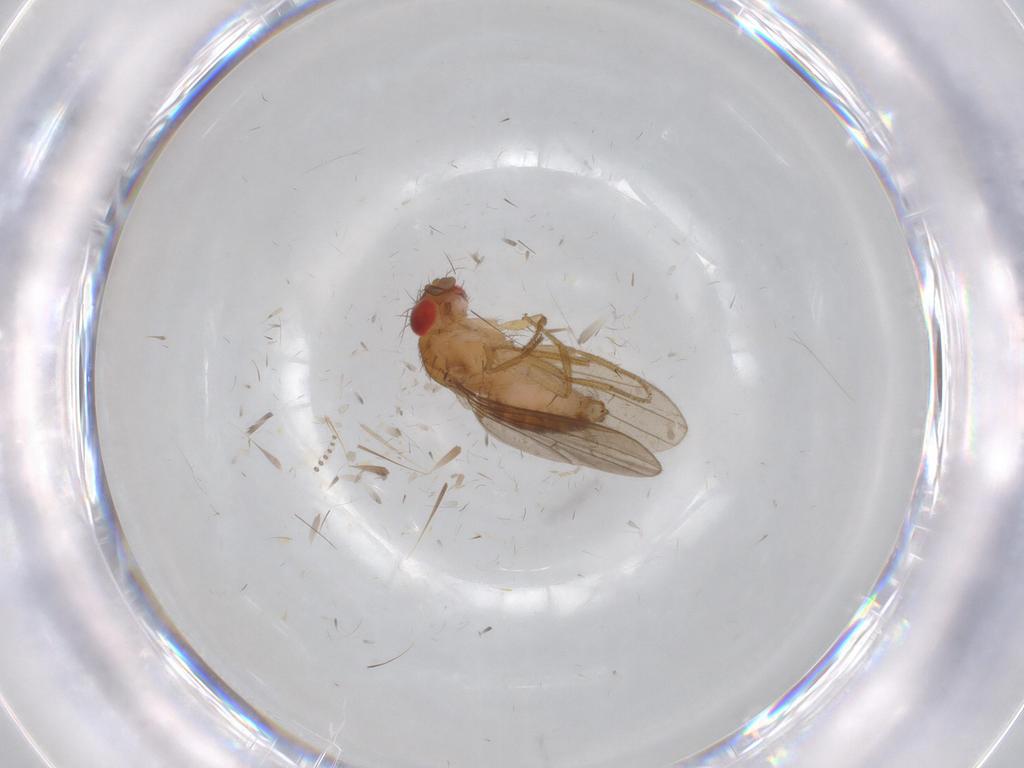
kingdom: Animalia
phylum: Arthropoda
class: Insecta
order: Diptera
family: Drosophilidae
